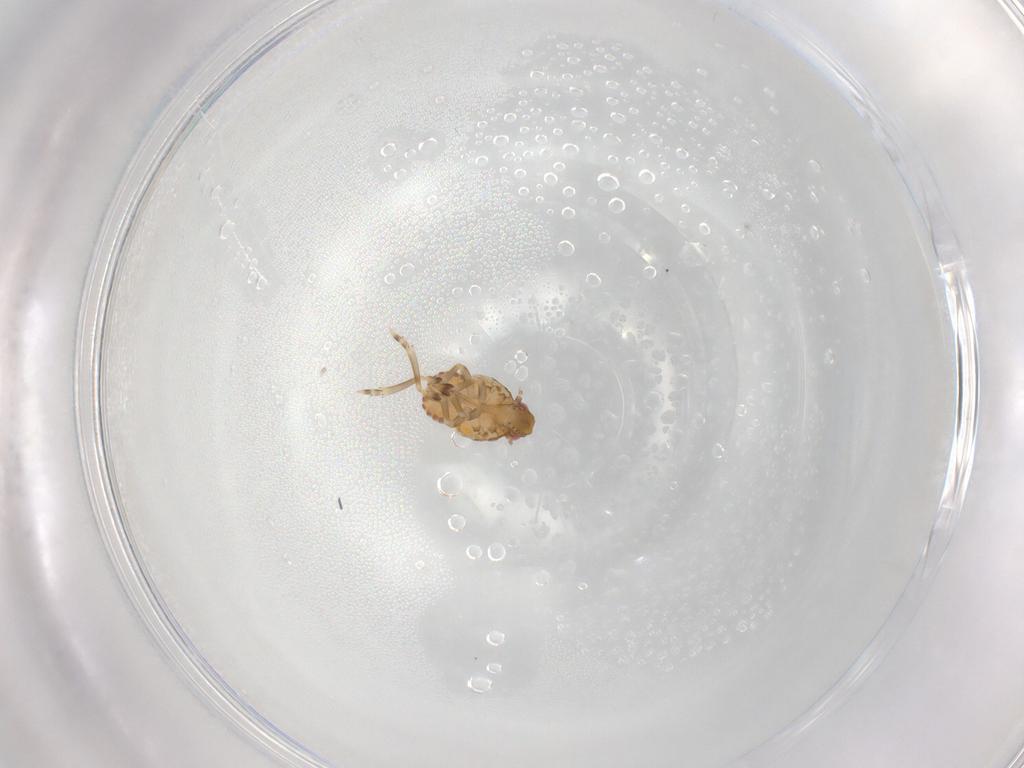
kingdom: Animalia
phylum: Arthropoda
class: Insecta
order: Hemiptera
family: Flatidae
